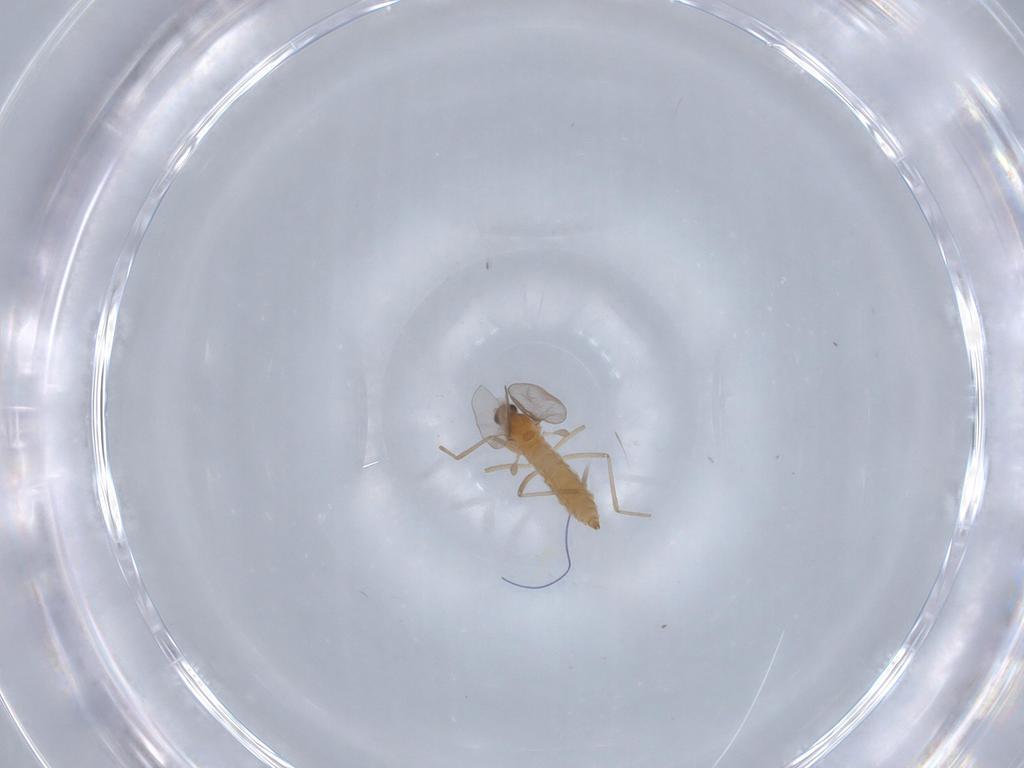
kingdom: Animalia
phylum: Arthropoda
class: Insecta
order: Diptera
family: Cecidomyiidae
